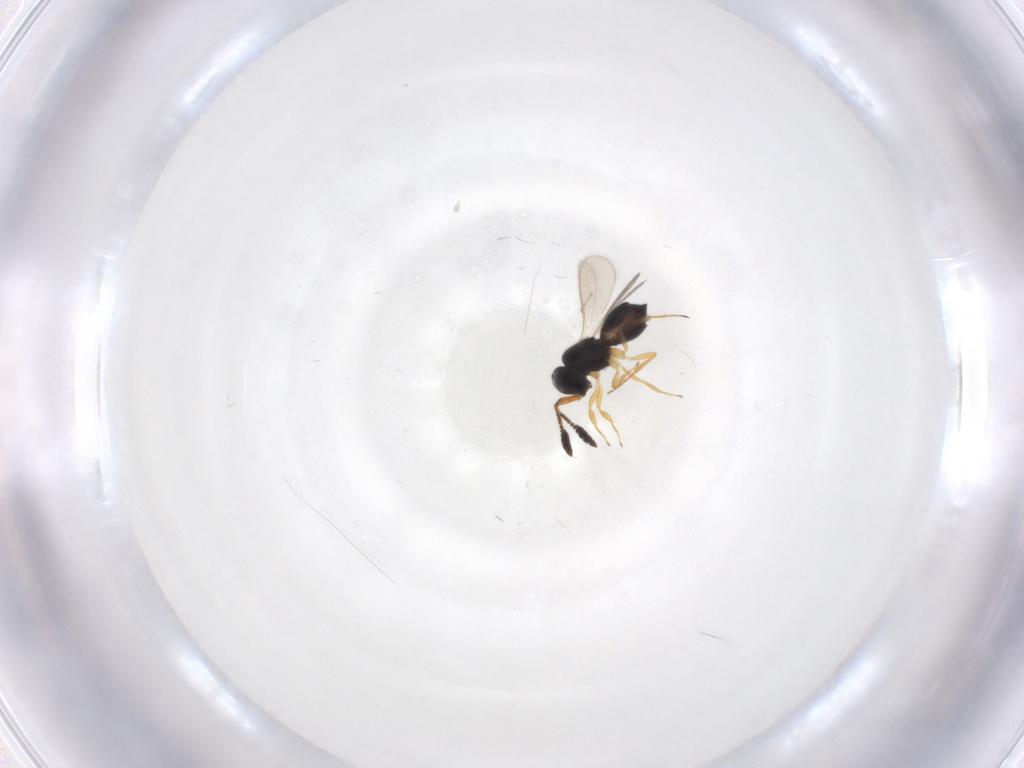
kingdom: Animalia
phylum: Arthropoda
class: Insecta
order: Hymenoptera
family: Scelionidae
